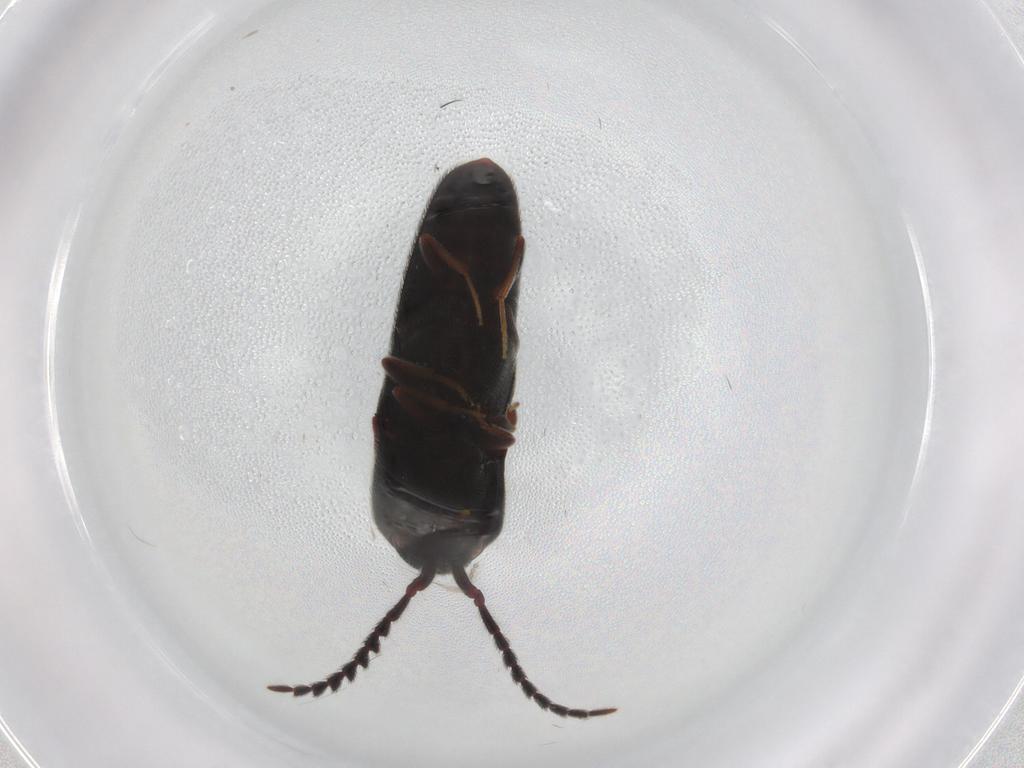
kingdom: Animalia
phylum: Arthropoda
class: Insecta
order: Coleoptera
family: Eucnemidae
